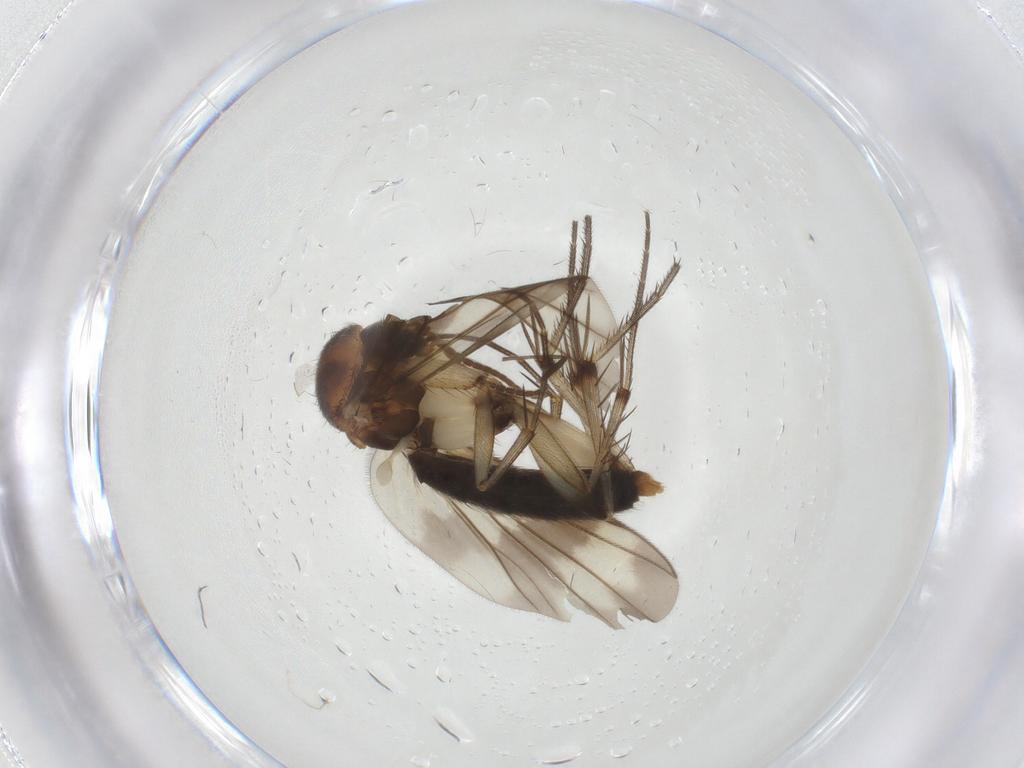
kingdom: Animalia
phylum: Arthropoda
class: Insecta
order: Diptera
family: Mycetophilidae
